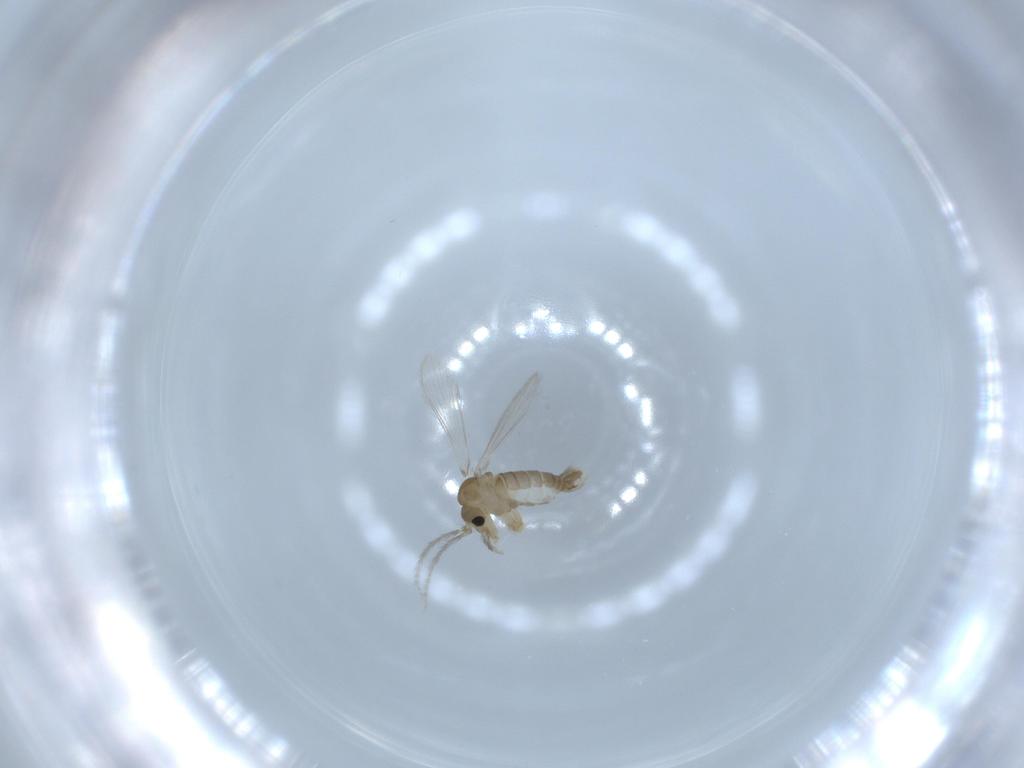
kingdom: Animalia
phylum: Arthropoda
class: Insecta
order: Diptera
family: Psychodidae
